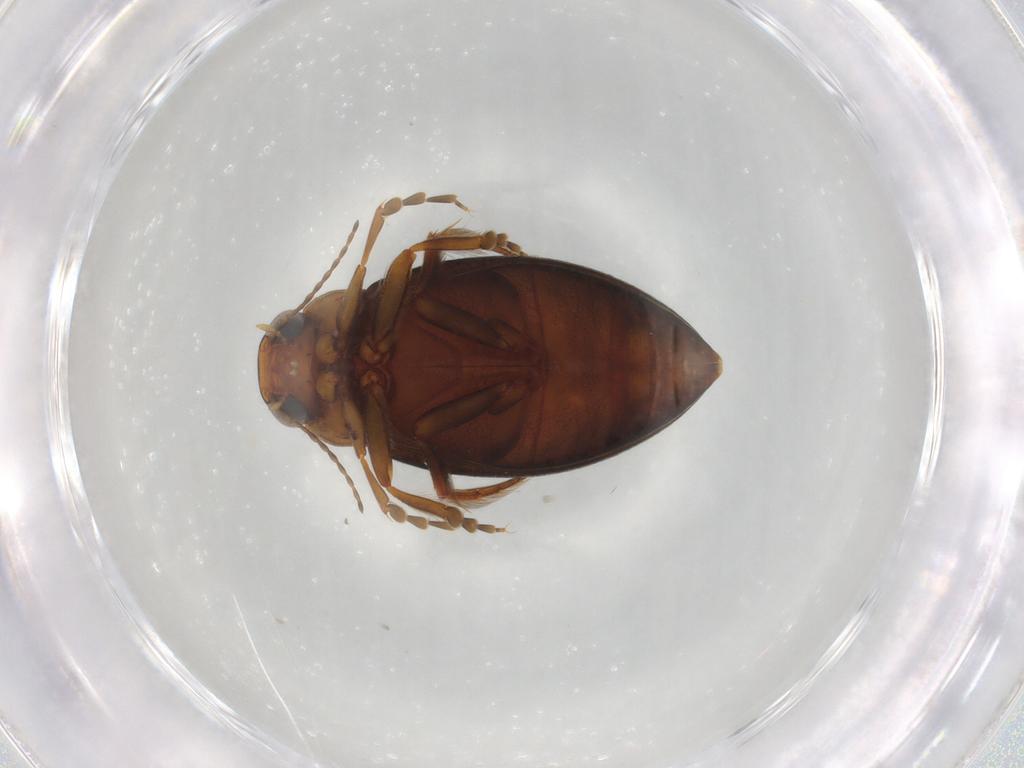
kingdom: Animalia
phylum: Arthropoda
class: Insecta
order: Coleoptera
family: Dytiscidae
